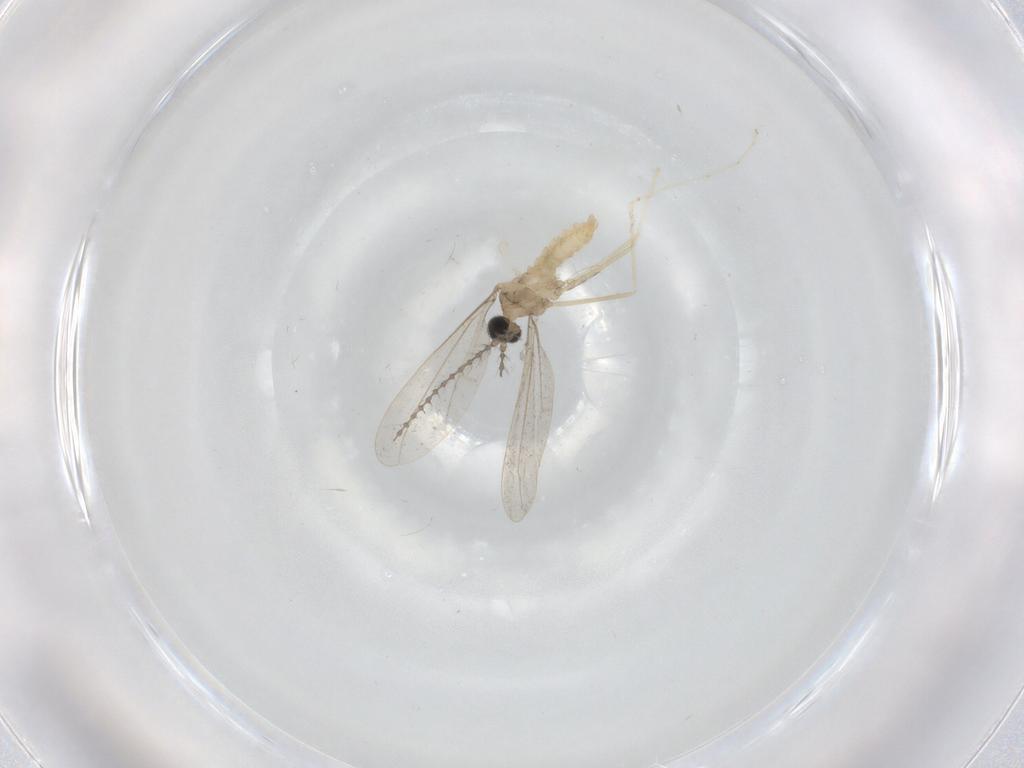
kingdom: Animalia
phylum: Arthropoda
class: Insecta
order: Diptera
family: Cecidomyiidae
